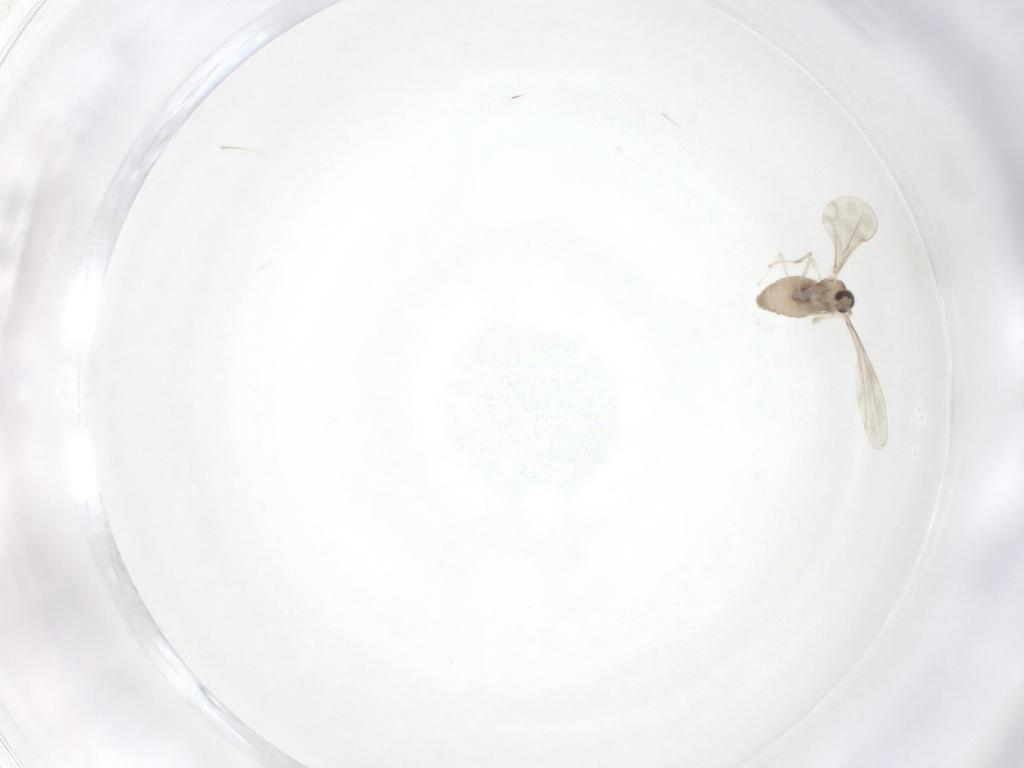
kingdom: Animalia
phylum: Arthropoda
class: Insecta
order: Diptera
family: Cecidomyiidae
